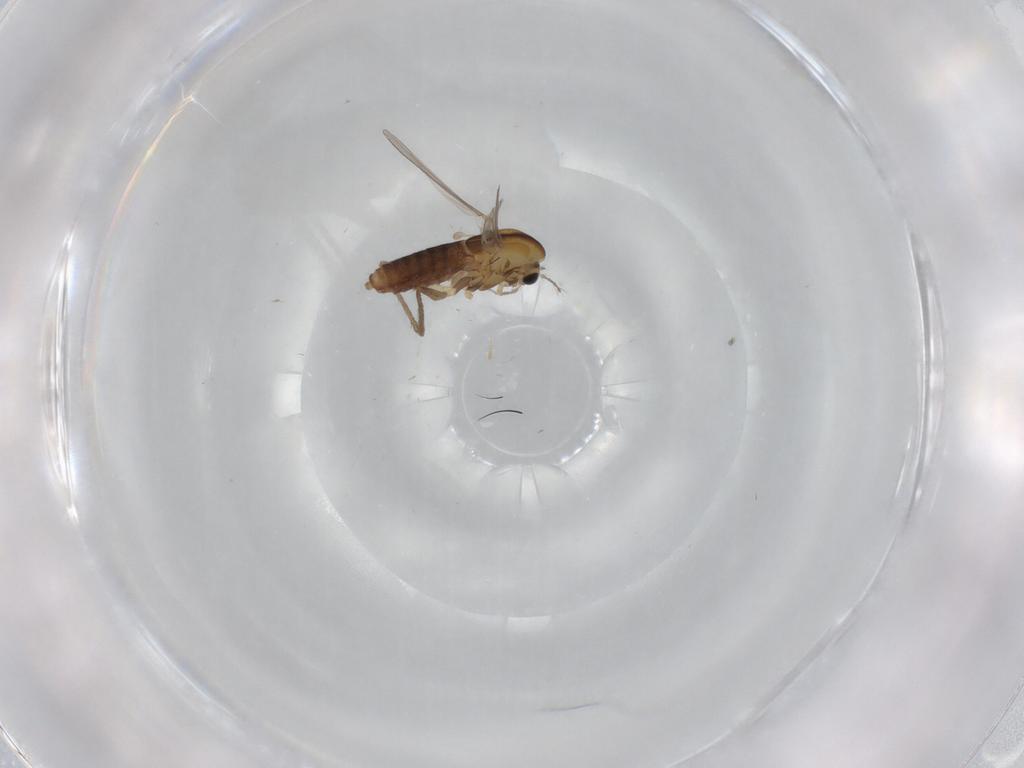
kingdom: Animalia
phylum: Arthropoda
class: Insecta
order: Diptera
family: Chironomidae
